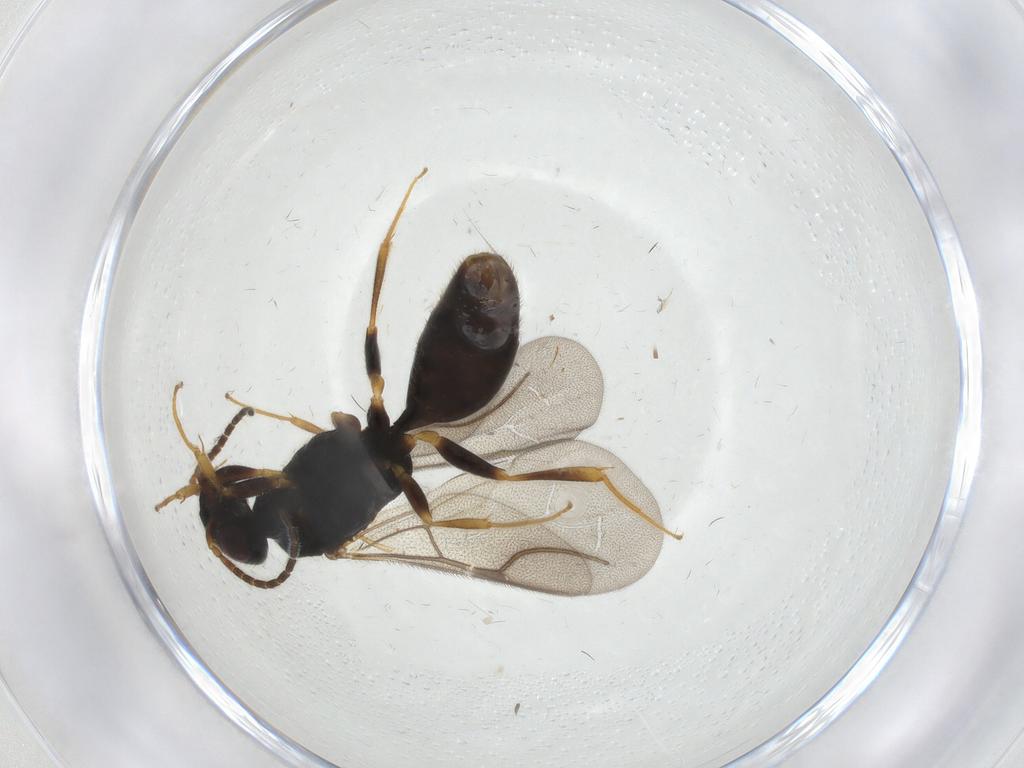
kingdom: Animalia
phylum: Arthropoda
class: Insecta
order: Hymenoptera
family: Bethylidae
